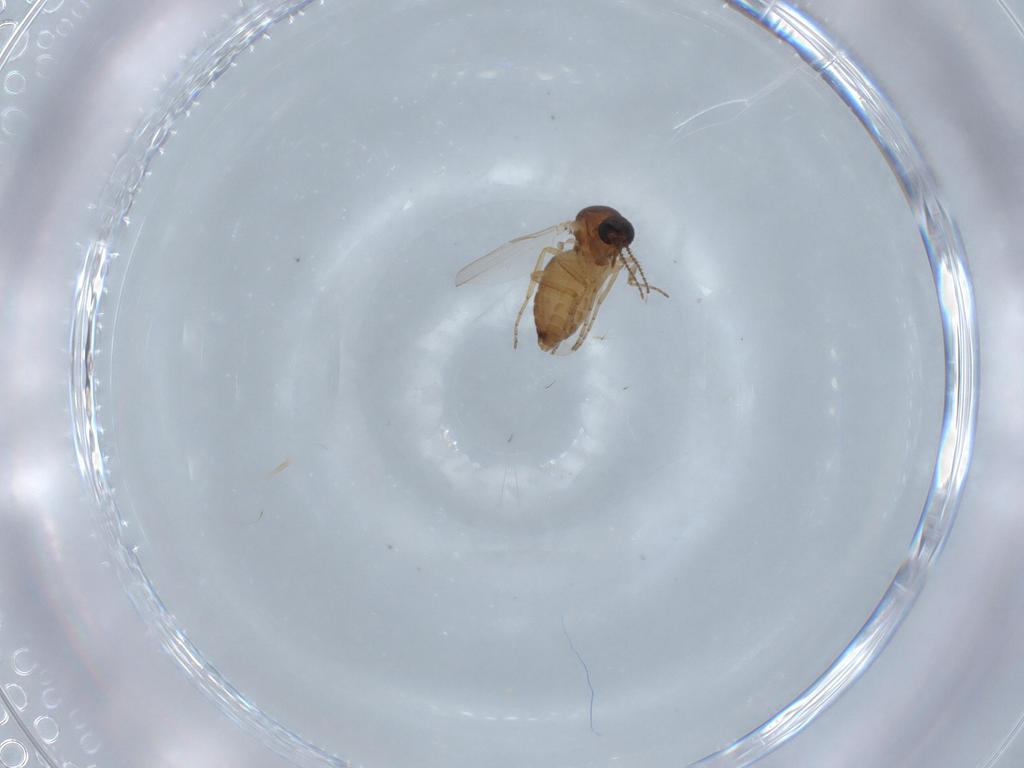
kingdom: Animalia
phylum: Arthropoda
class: Insecta
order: Diptera
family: Ceratopogonidae
